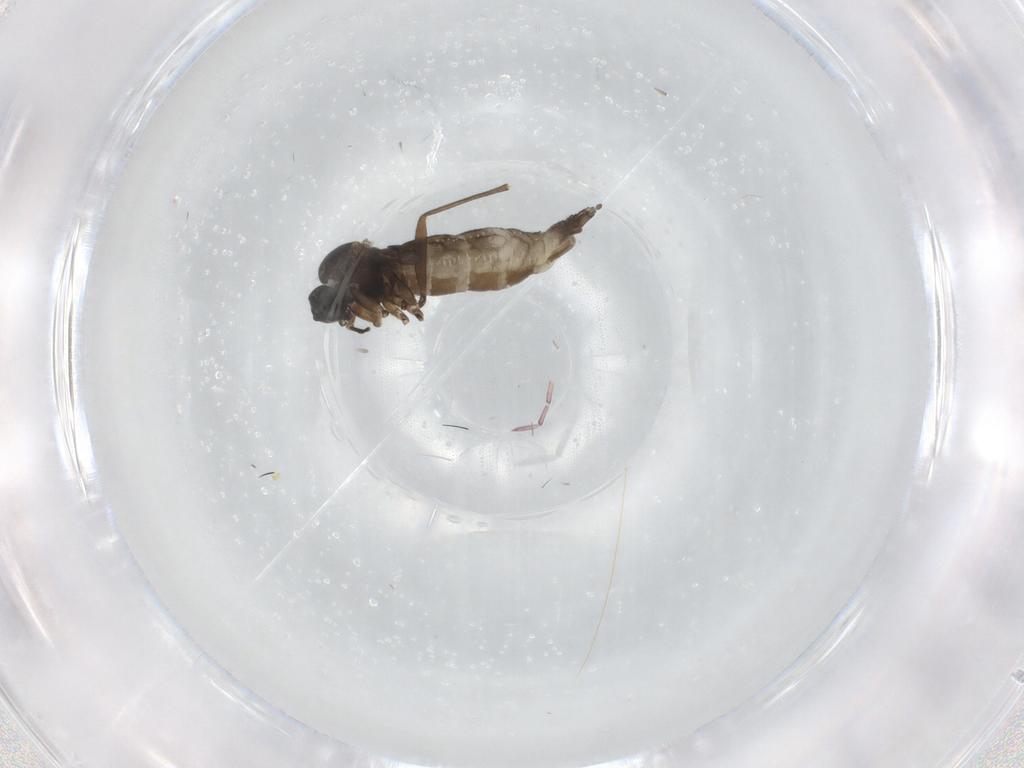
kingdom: Animalia
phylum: Arthropoda
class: Insecta
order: Diptera
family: Sciaridae
